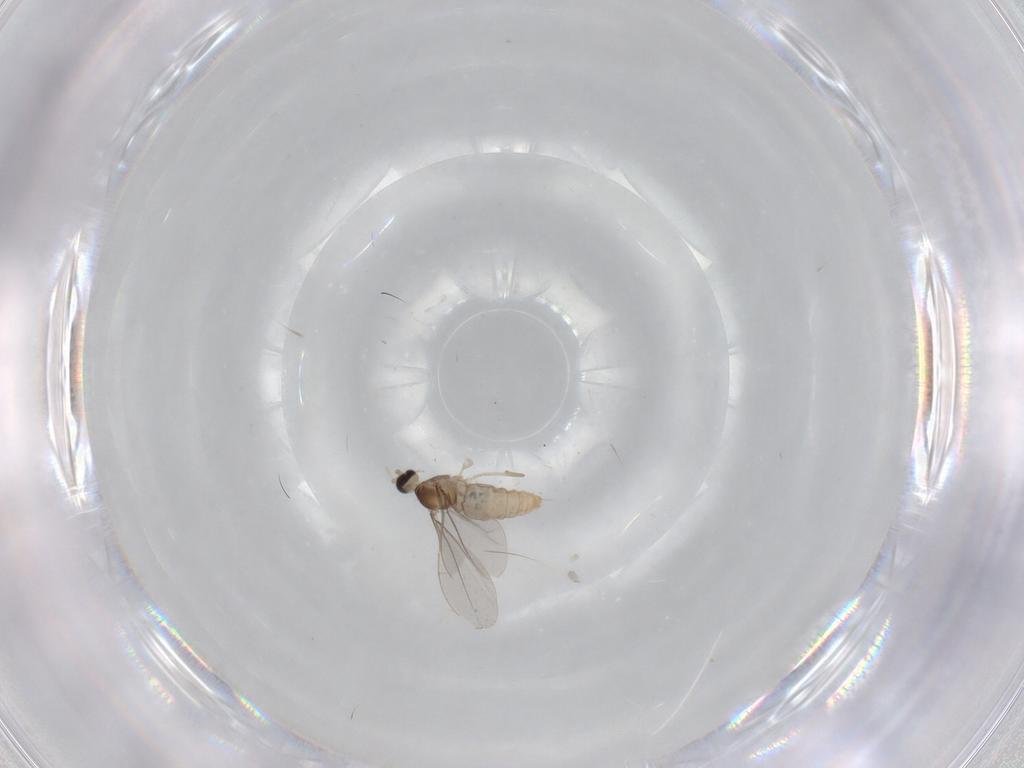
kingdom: Animalia
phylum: Arthropoda
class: Insecta
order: Diptera
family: Cecidomyiidae
